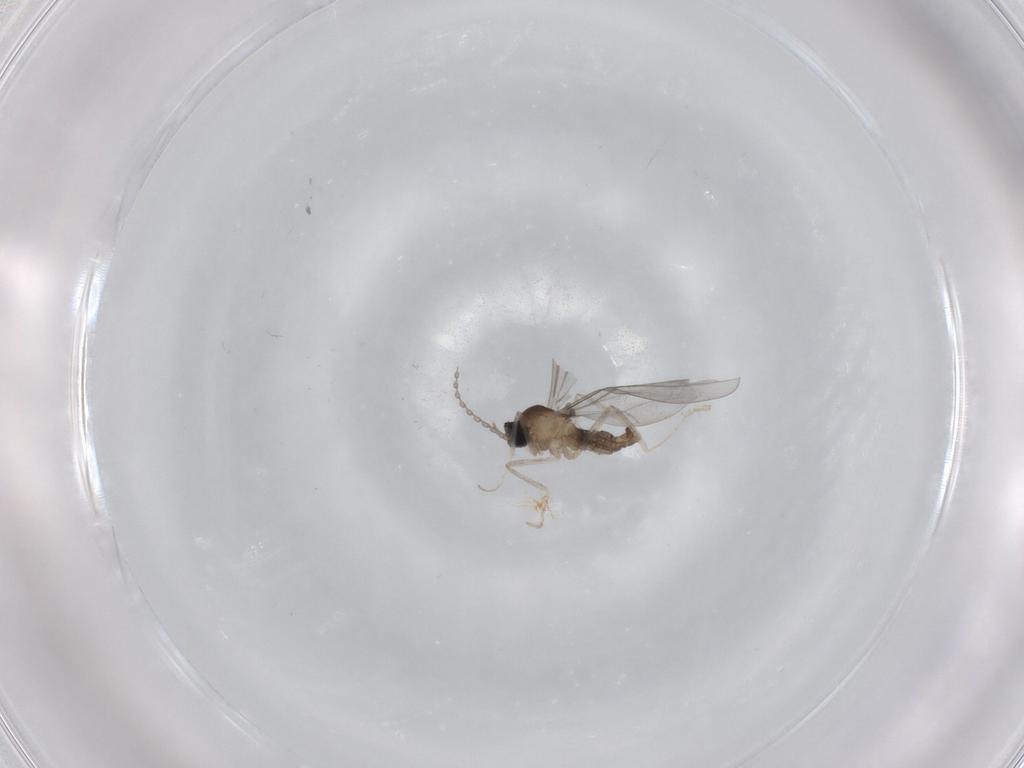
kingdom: Animalia
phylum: Arthropoda
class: Insecta
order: Diptera
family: Cecidomyiidae
